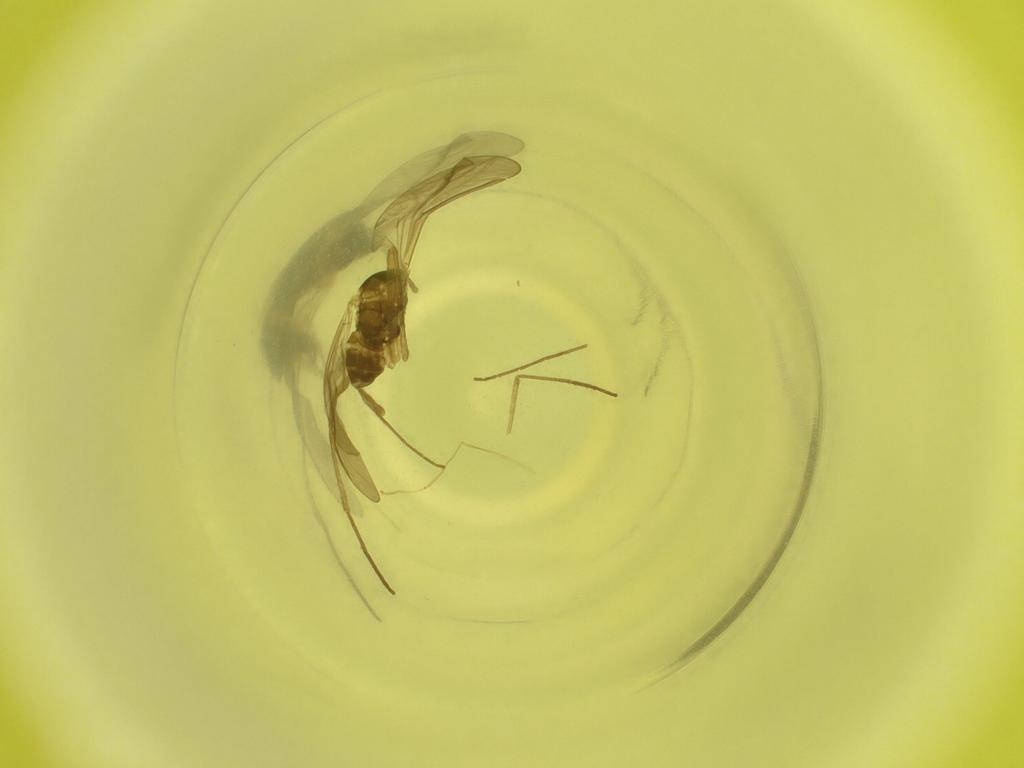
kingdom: Animalia
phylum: Arthropoda
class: Insecta
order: Diptera
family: Cecidomyiidae
